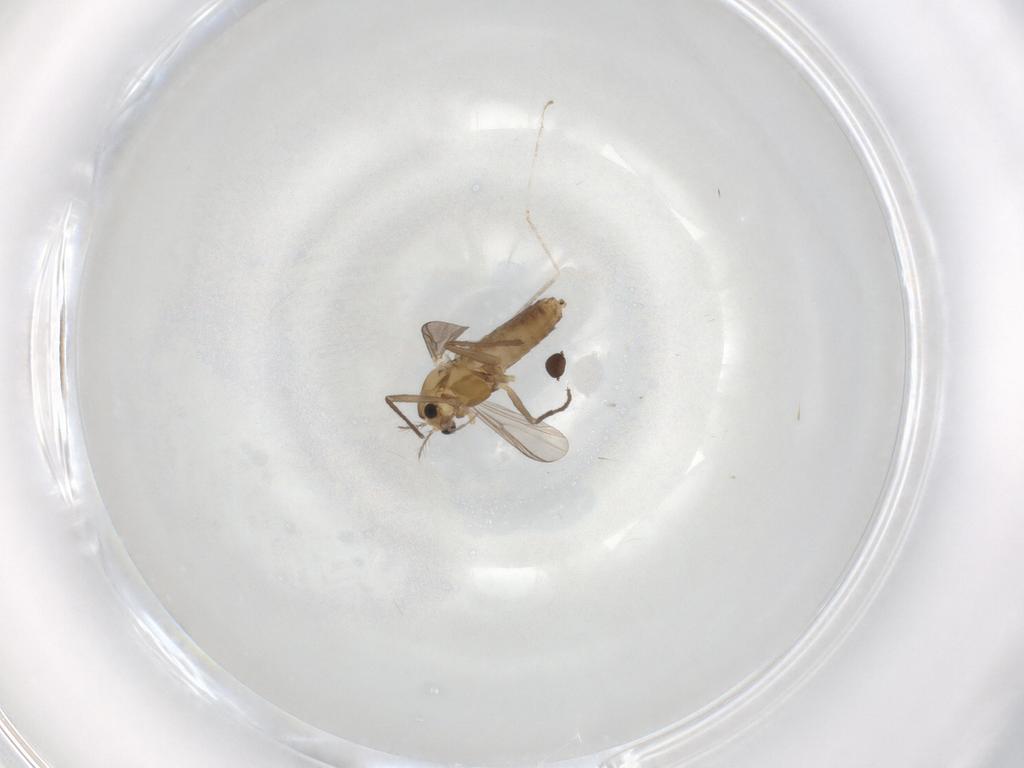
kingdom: Animalia
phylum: Arthropoda
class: Insecta
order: Diptera
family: Chironomidae
